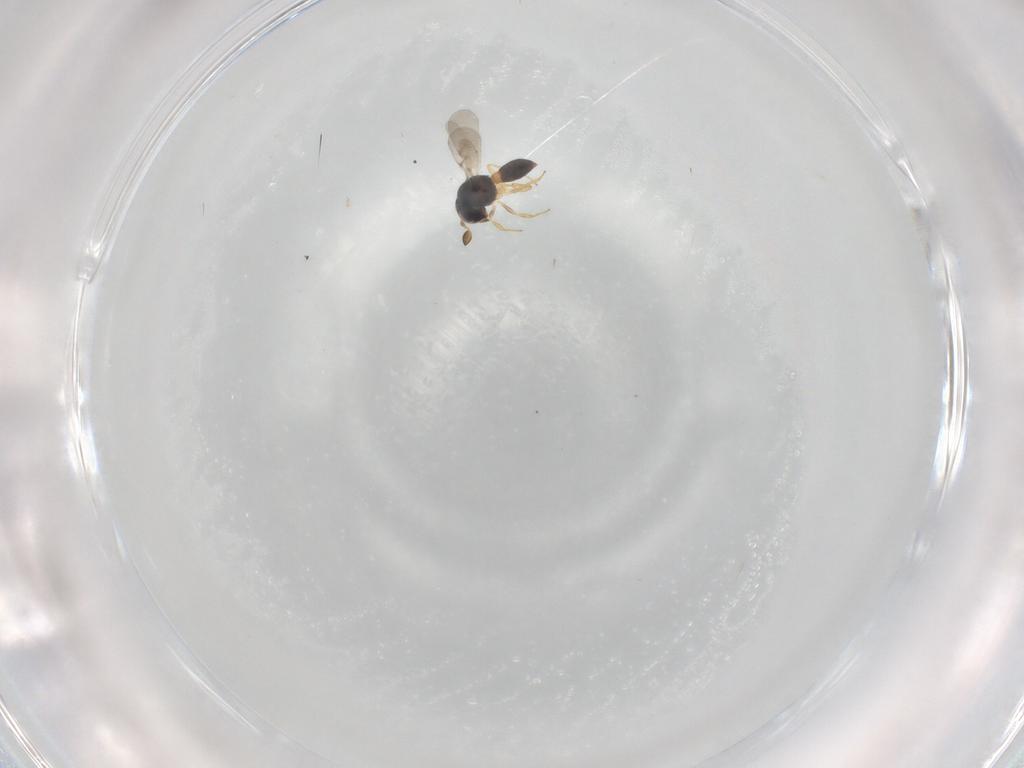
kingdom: Animalia
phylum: Arthropoda
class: Insecta
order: Hymenoptera
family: Scelionidae
